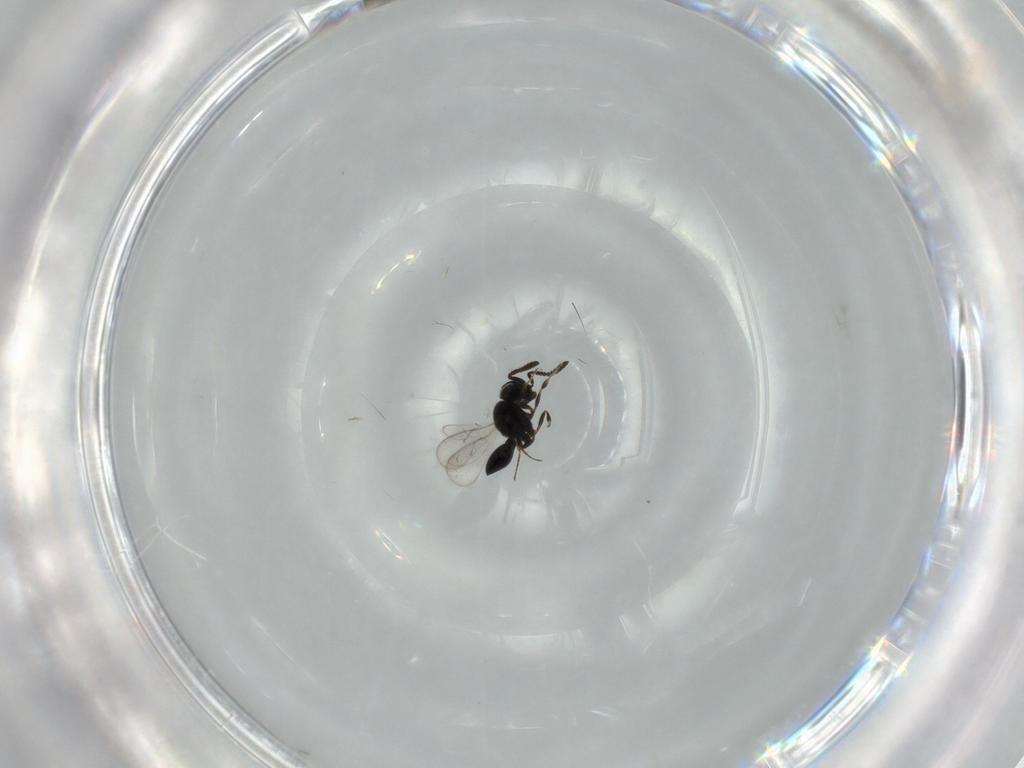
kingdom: Animalia
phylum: Arthropoda
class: Insecta
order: Hymenoptera
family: Scelionidae
